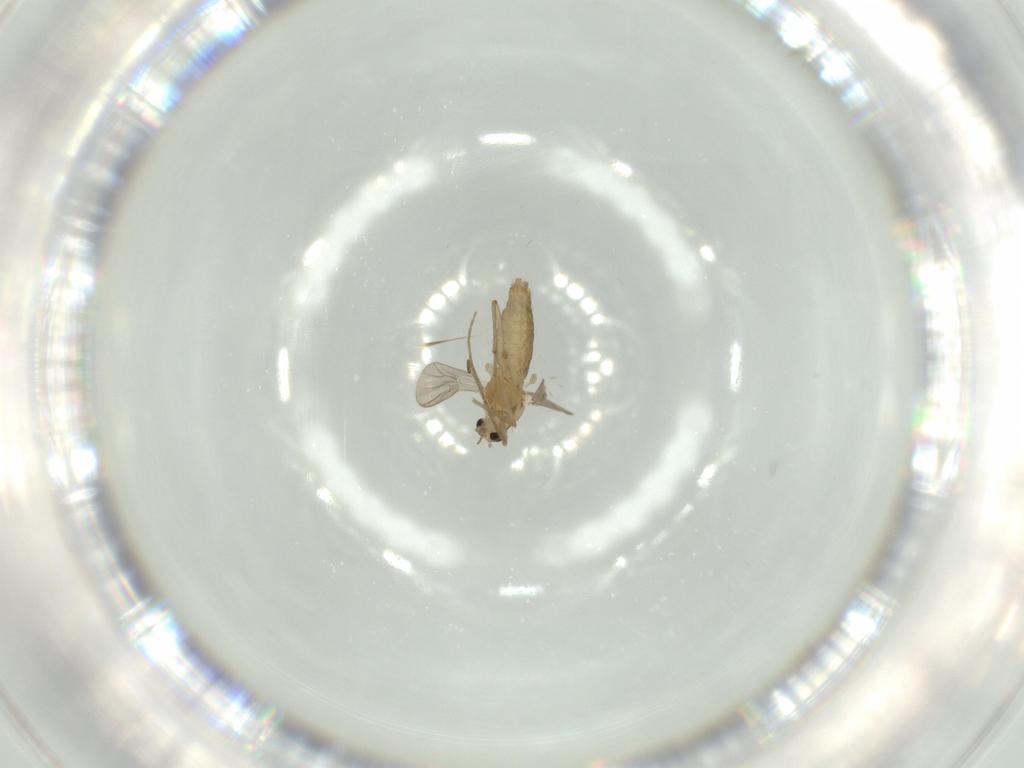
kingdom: Animalia
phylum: Arthropoda
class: Insecta
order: Diptera
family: Chironomidae
